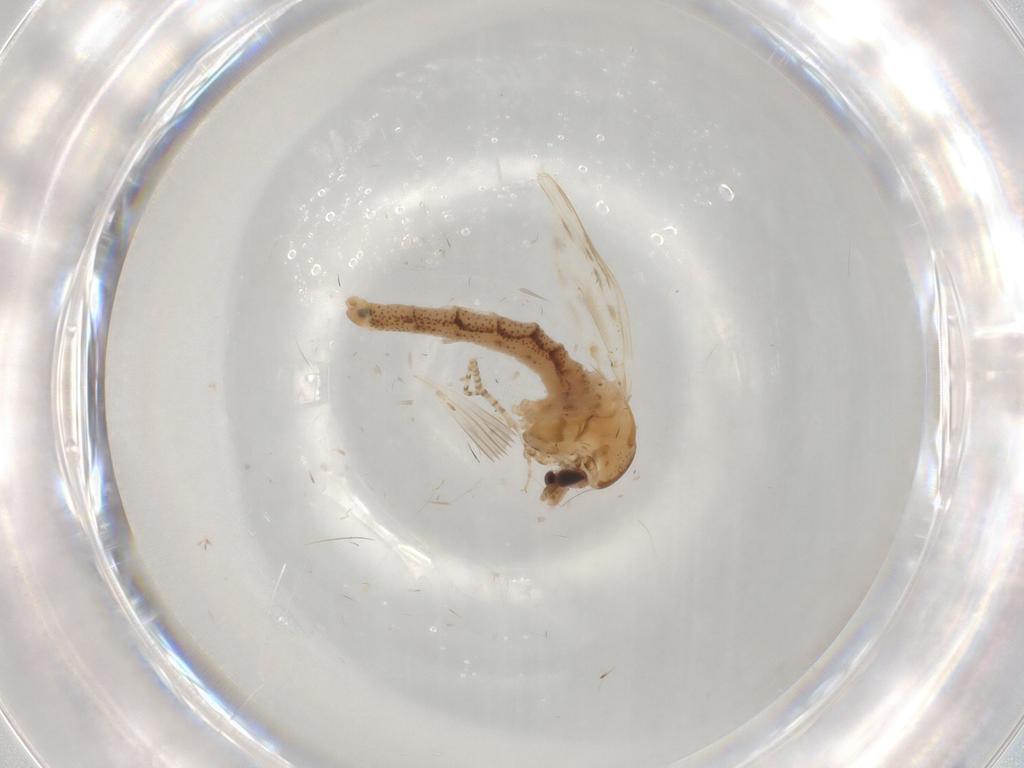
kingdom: Animalia
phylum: Arthropoda
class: Insecta
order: Diptera
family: Chaoboridae
